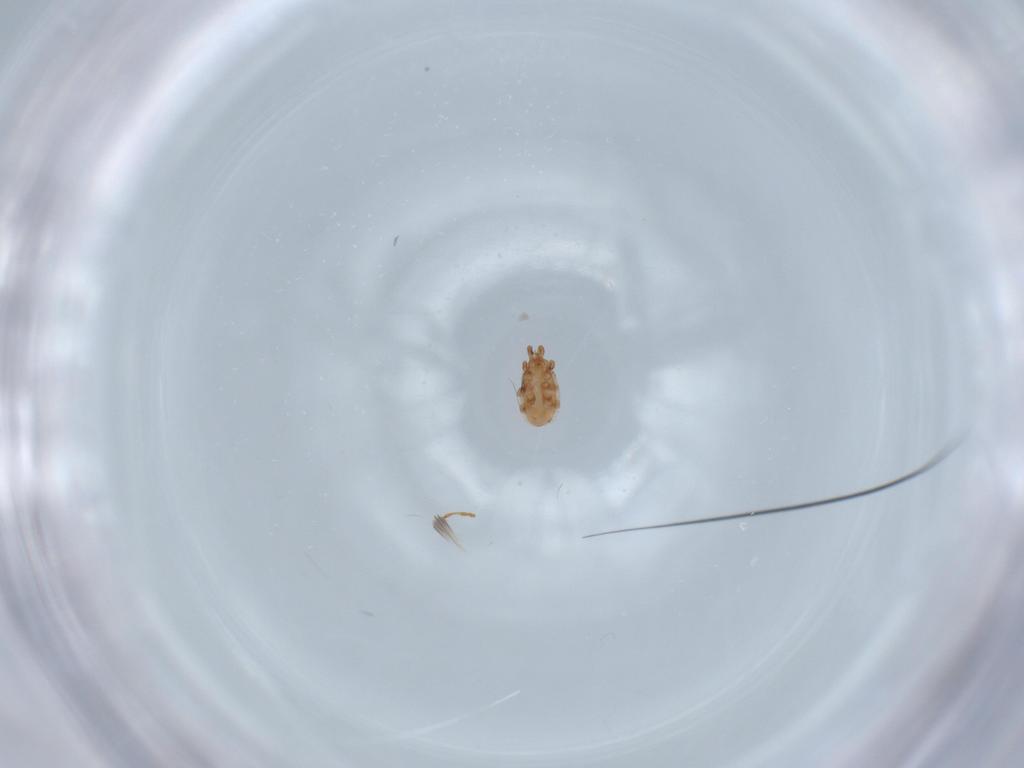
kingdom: Animalia
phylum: Arthropoda
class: Arachnida
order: Mesostigmata
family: Dinychidae
